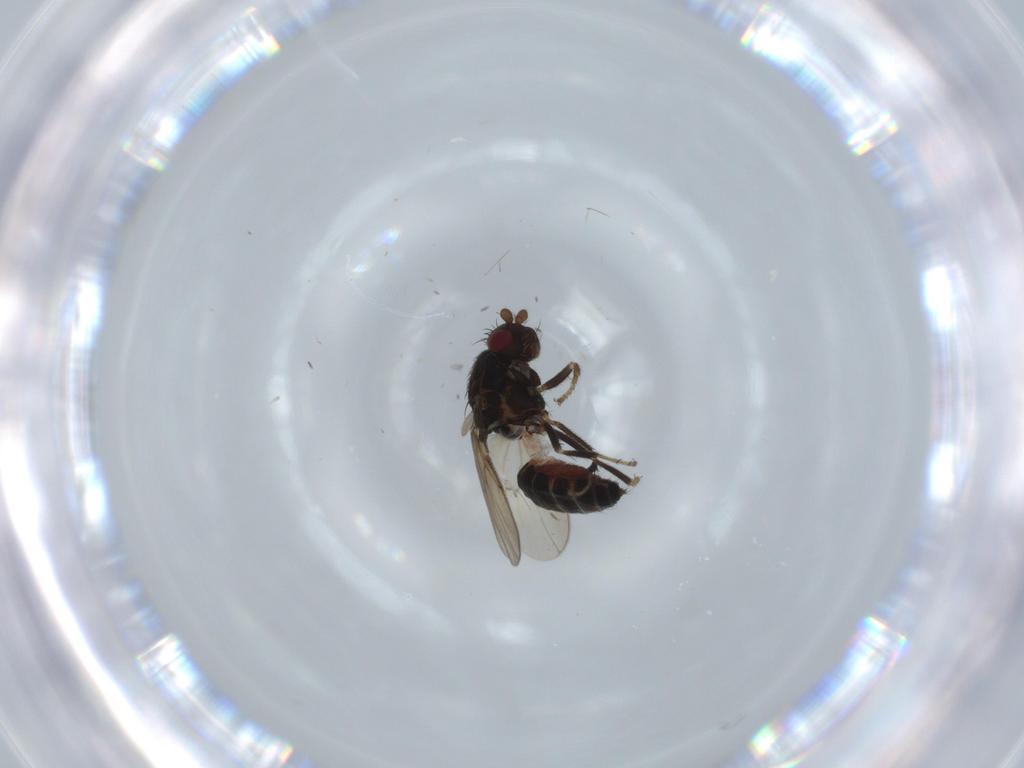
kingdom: Animalia
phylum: Arthropoda
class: Insecta
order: Diptera
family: Sphaeroceridae
